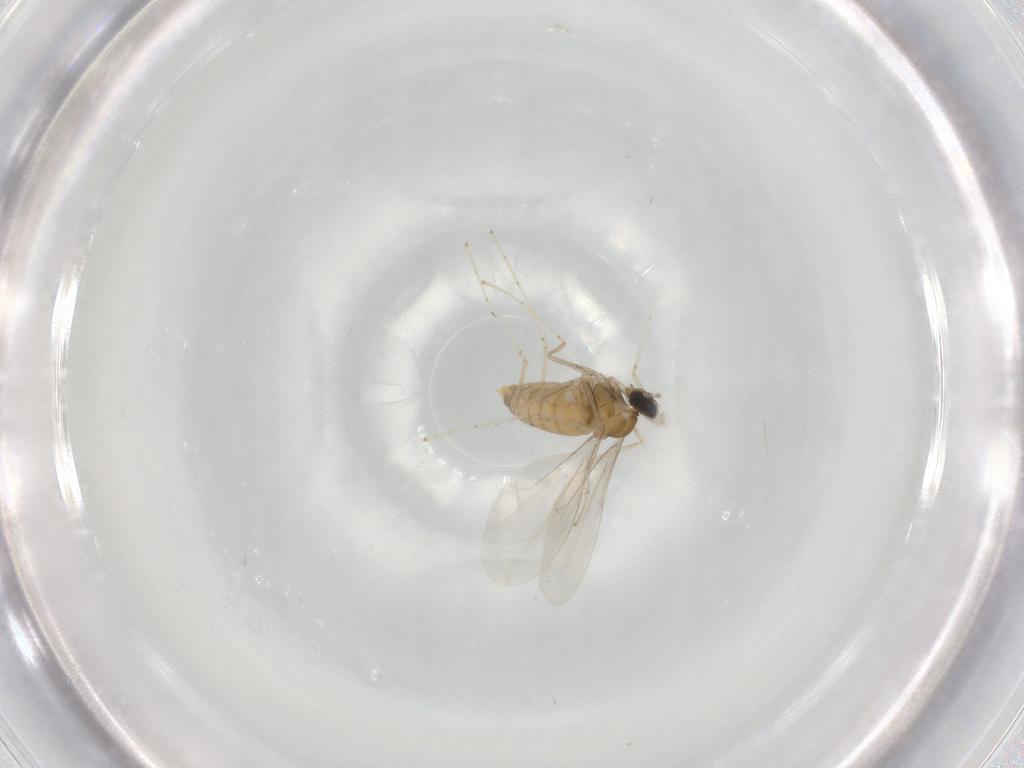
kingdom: Animalia
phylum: Arthropoda
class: Insecta
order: Diptera
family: Cecidomyiidae
